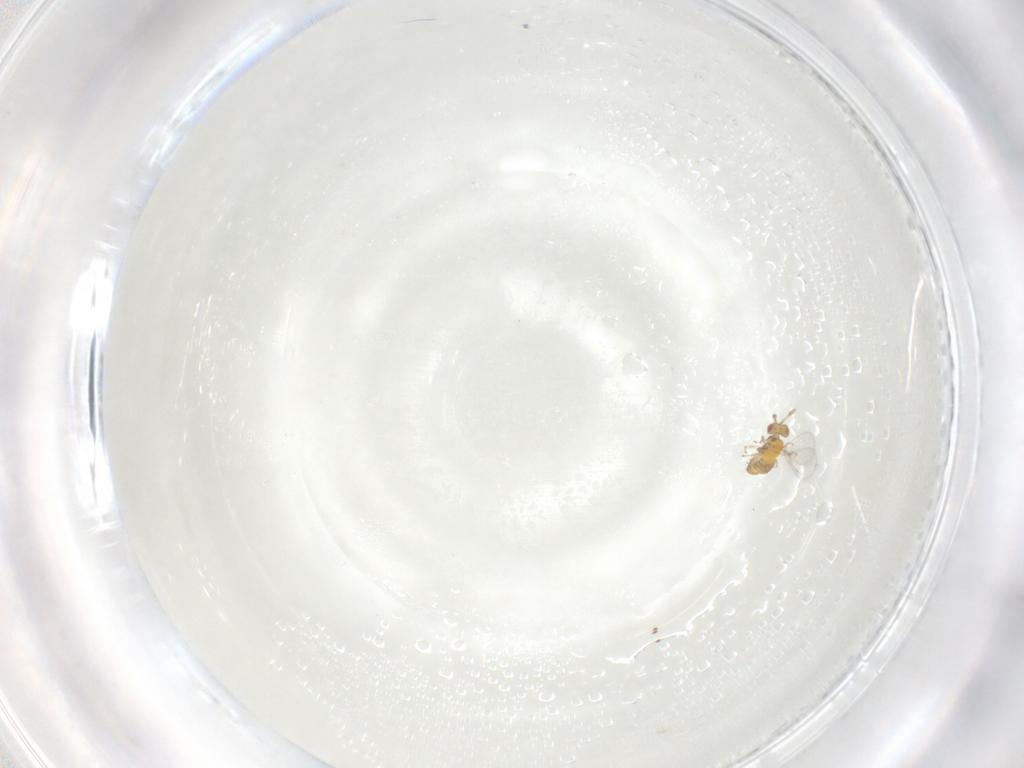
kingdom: Animalia
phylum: Arthropoda
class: Insecta
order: Hymenoptera
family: Trichogrammatidae
